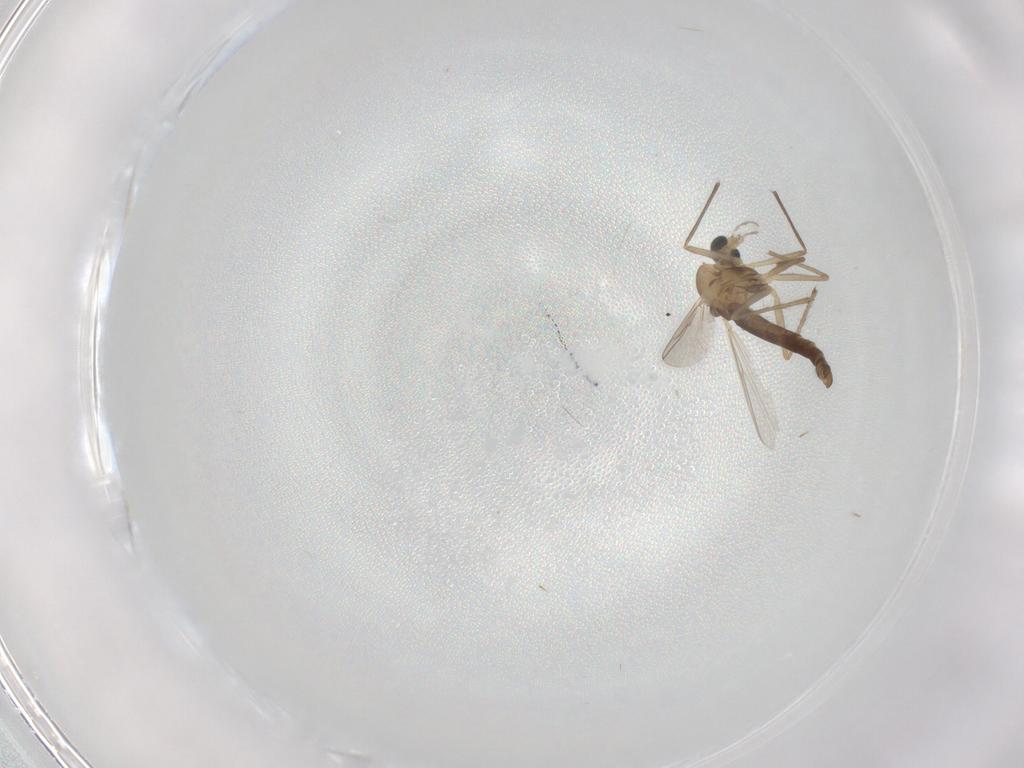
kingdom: Animalia
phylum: Arthropoda
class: Insecta
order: Diptera
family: Chironomidae
